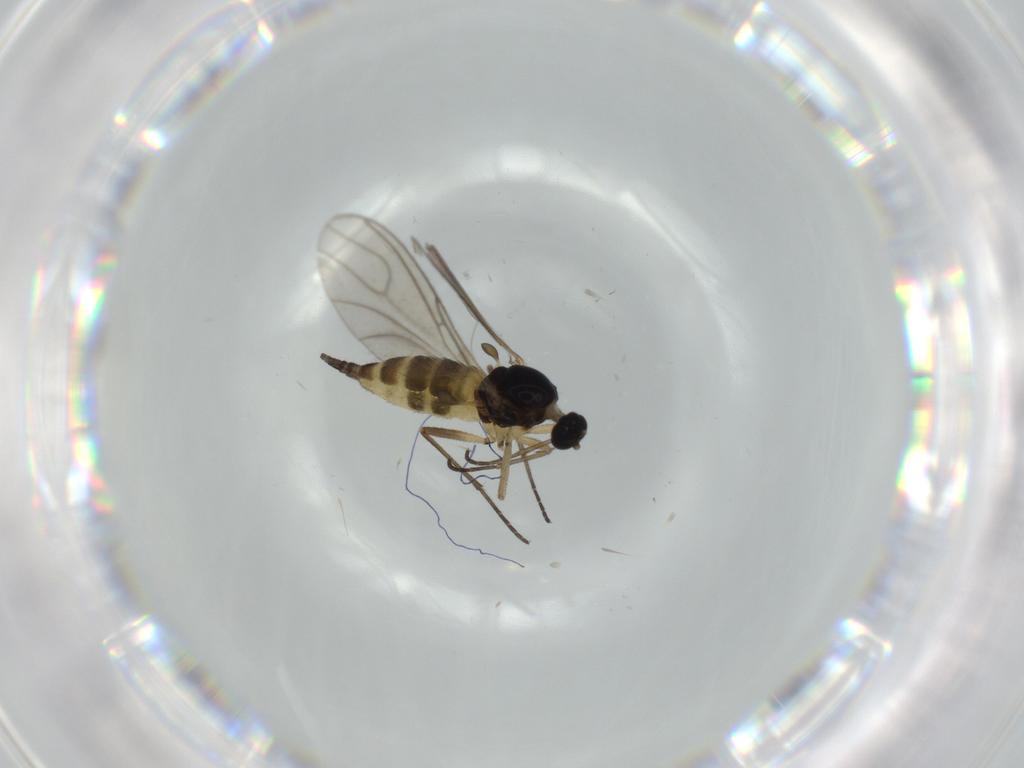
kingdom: Animalia
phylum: Arthropoda
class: Insecta
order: Diptera
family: Sciaridae
